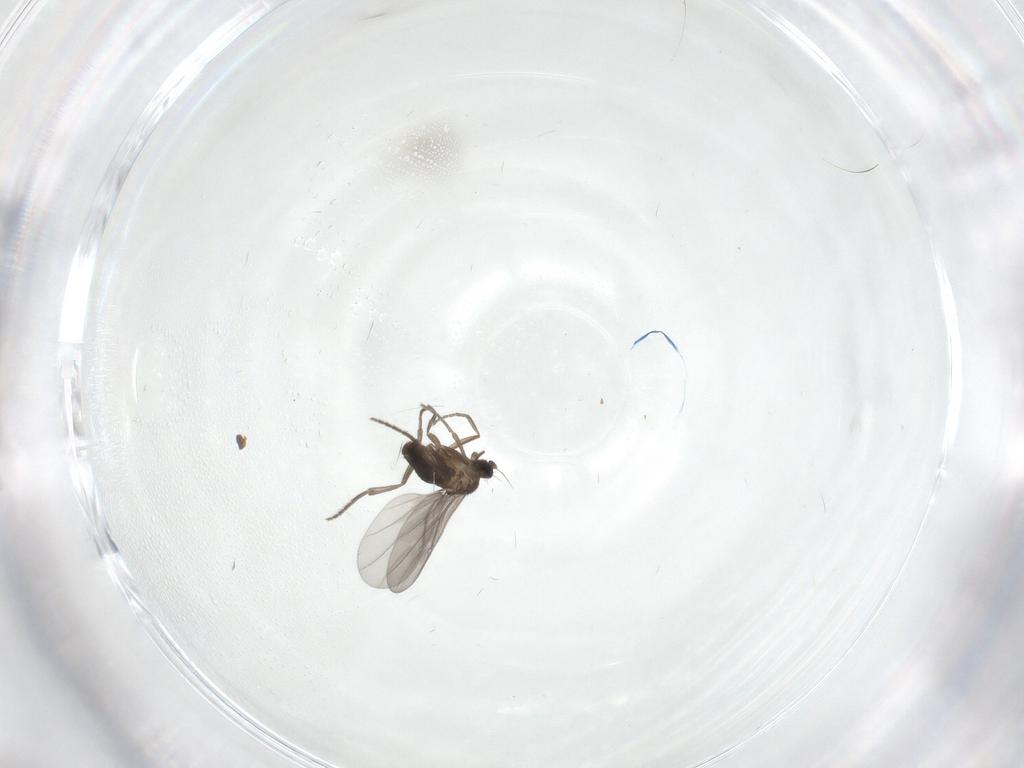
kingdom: Animalia
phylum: Arthropoda
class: Insecta
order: Diptera
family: Chironomidae
